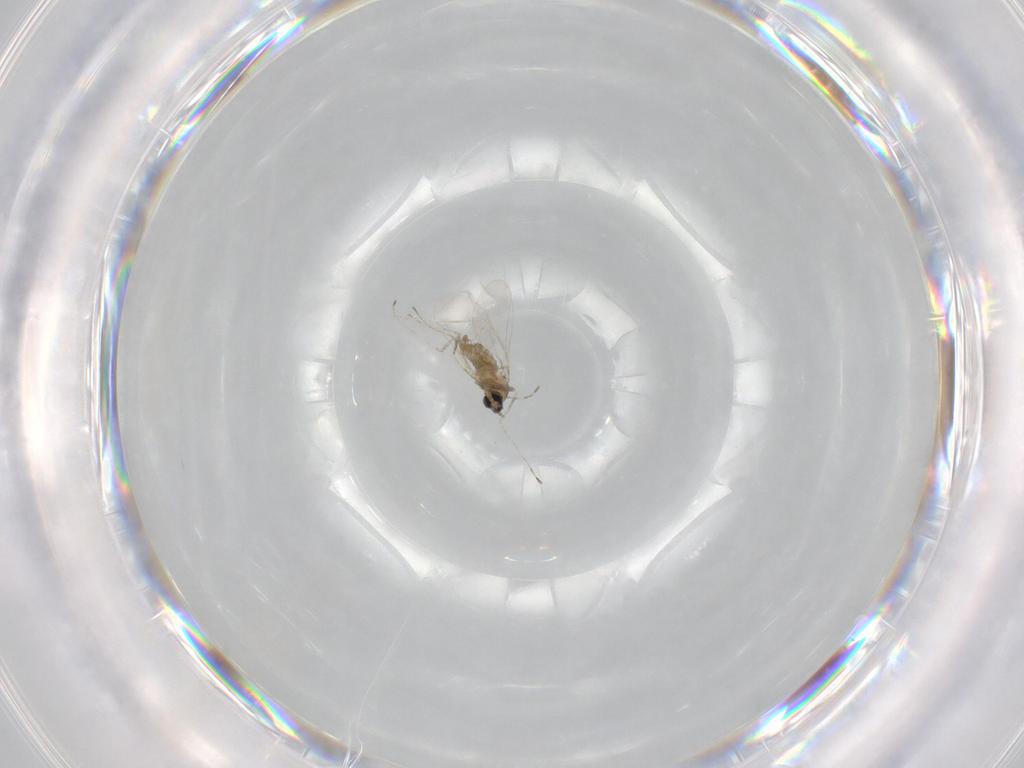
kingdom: Animalia
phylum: Arthropoda
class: Insecta
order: Diptera
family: Cecidomyiidae
